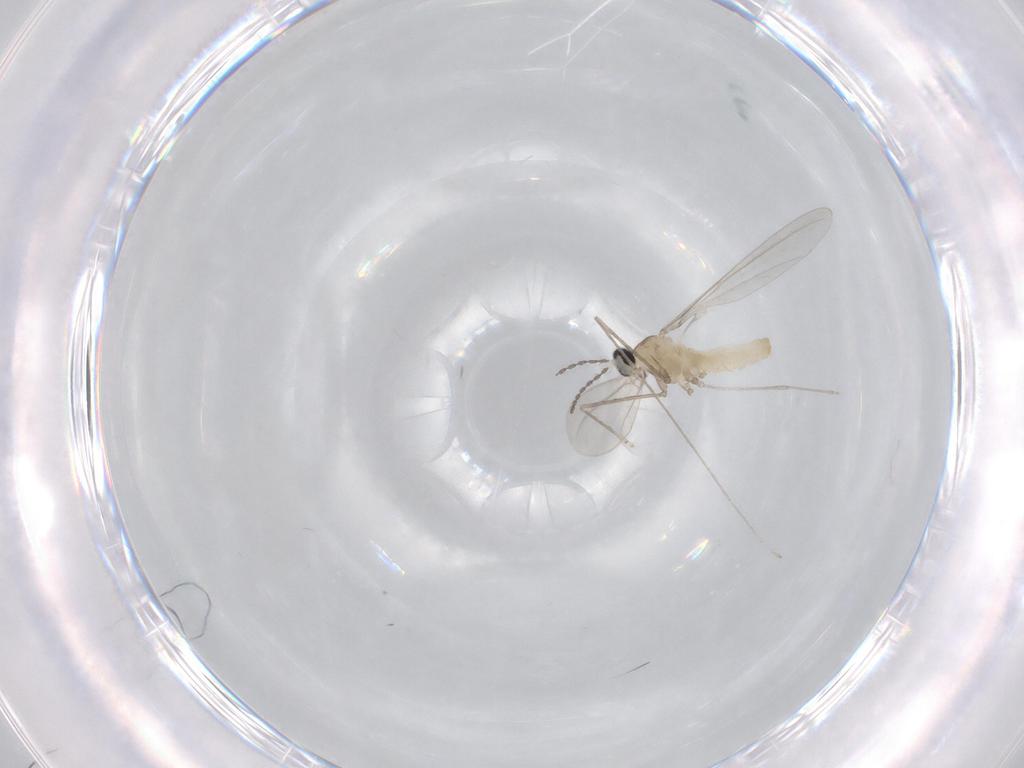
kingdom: Animalia
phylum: Arthropoda
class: Insecta
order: Diptera
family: Cecidomyiidae
